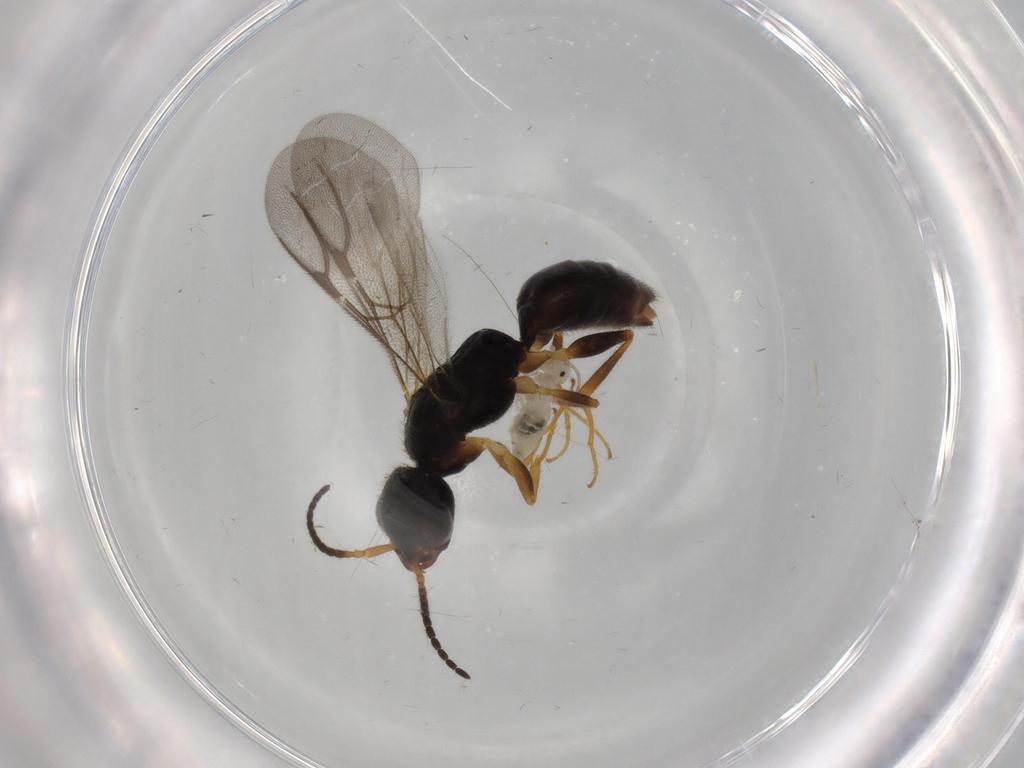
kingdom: Animalia
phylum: Arthropoda
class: Insecta
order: Hymenoptera
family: Bethylidae
